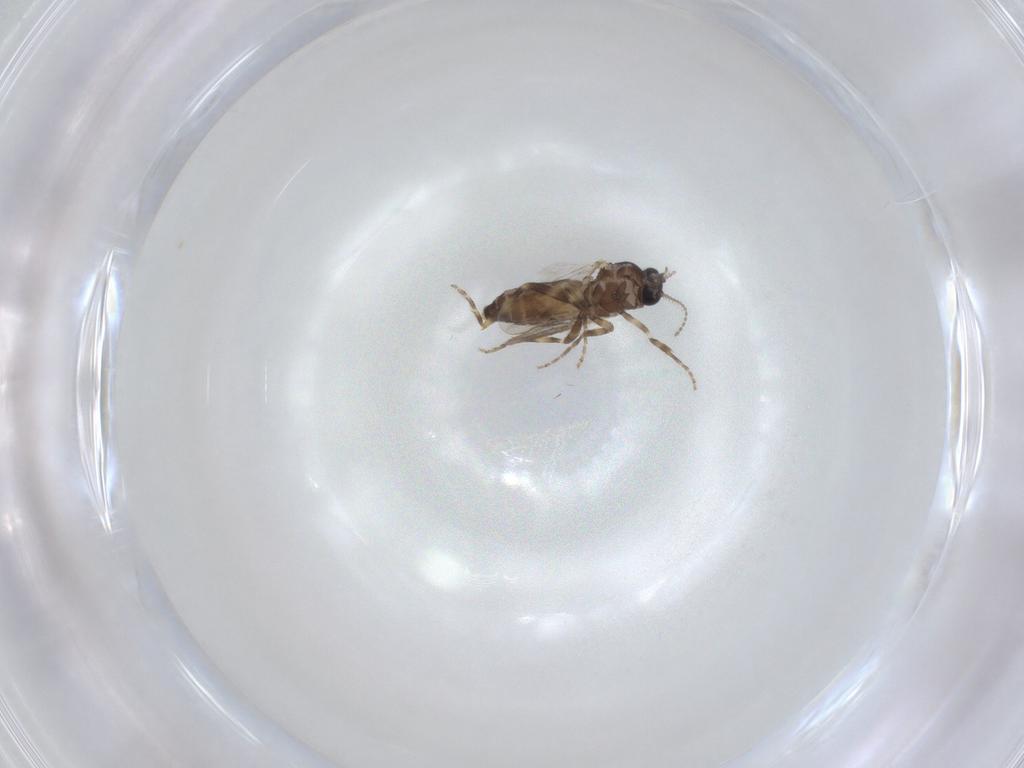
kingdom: Animalia
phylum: Arthropoda
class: Insecta
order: Diptera
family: Ceratopogonidae
